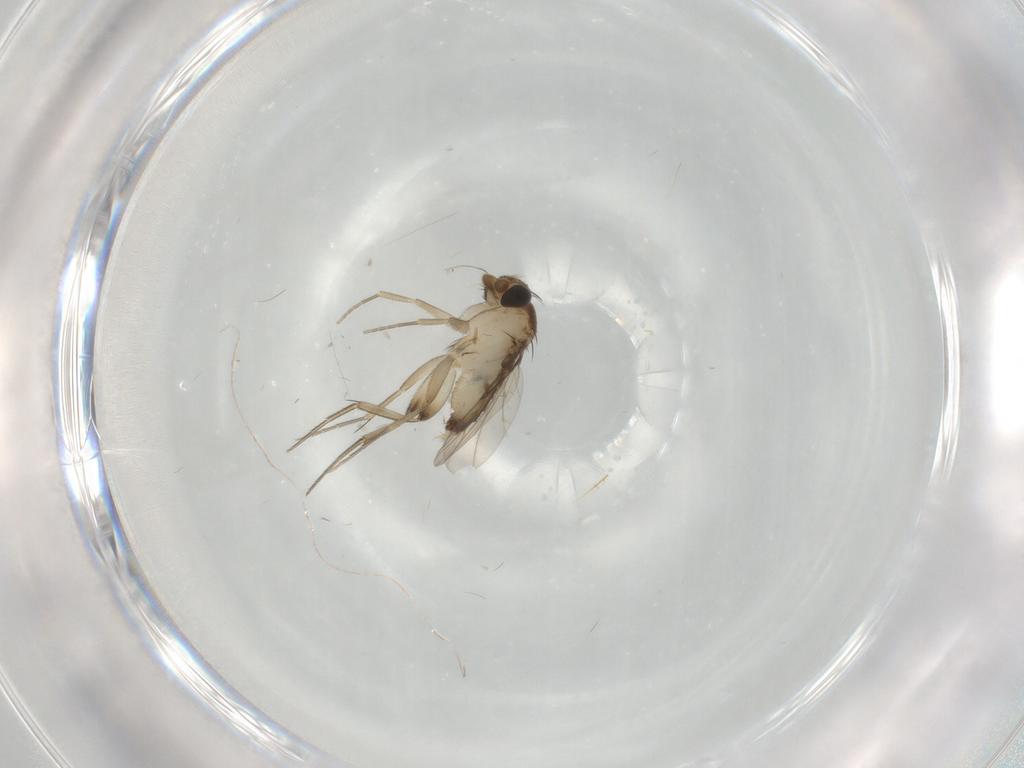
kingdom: Animalia
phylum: Arthropoda
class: Insecta
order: Diptera
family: Phoridae
